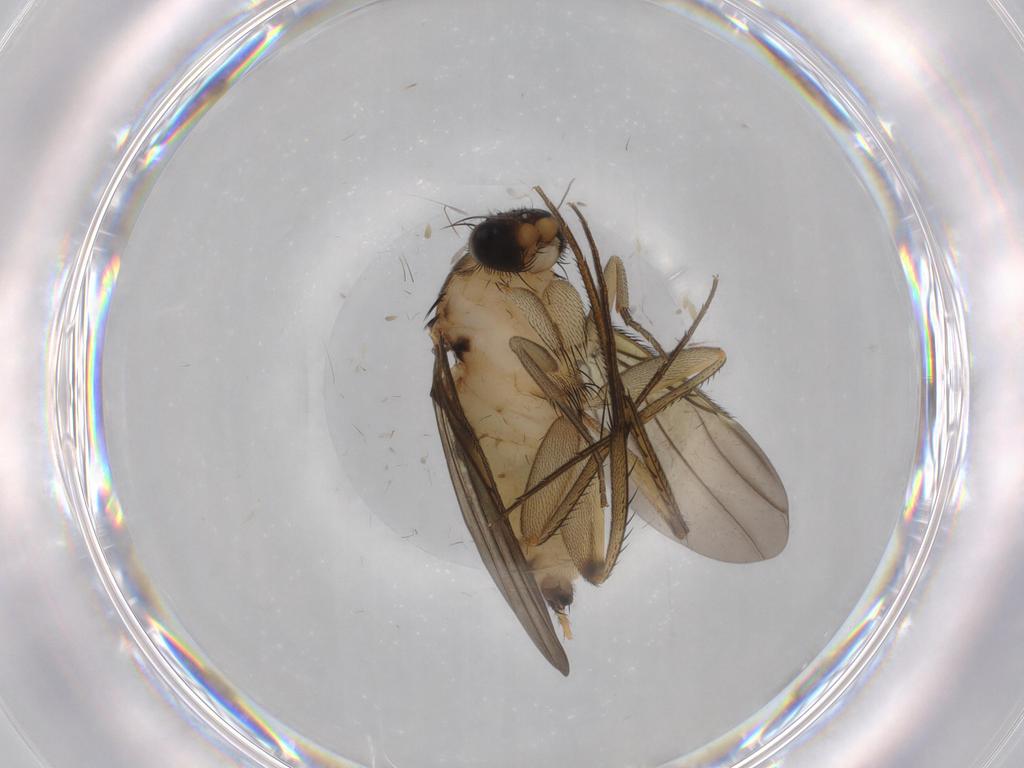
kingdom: Animalia
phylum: Arthropoda
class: Insecta
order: Diptera
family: Phoridae
